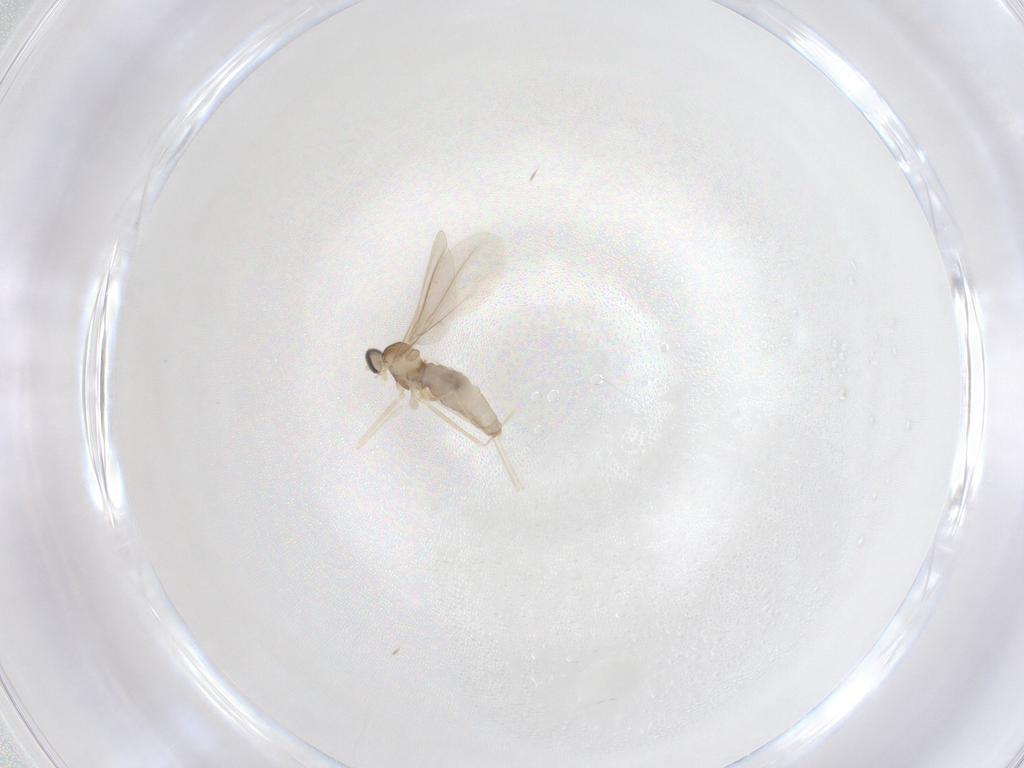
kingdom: Animalia
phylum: Arthropoda
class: Insecta
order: Diptera
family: Cecidomyiidae
